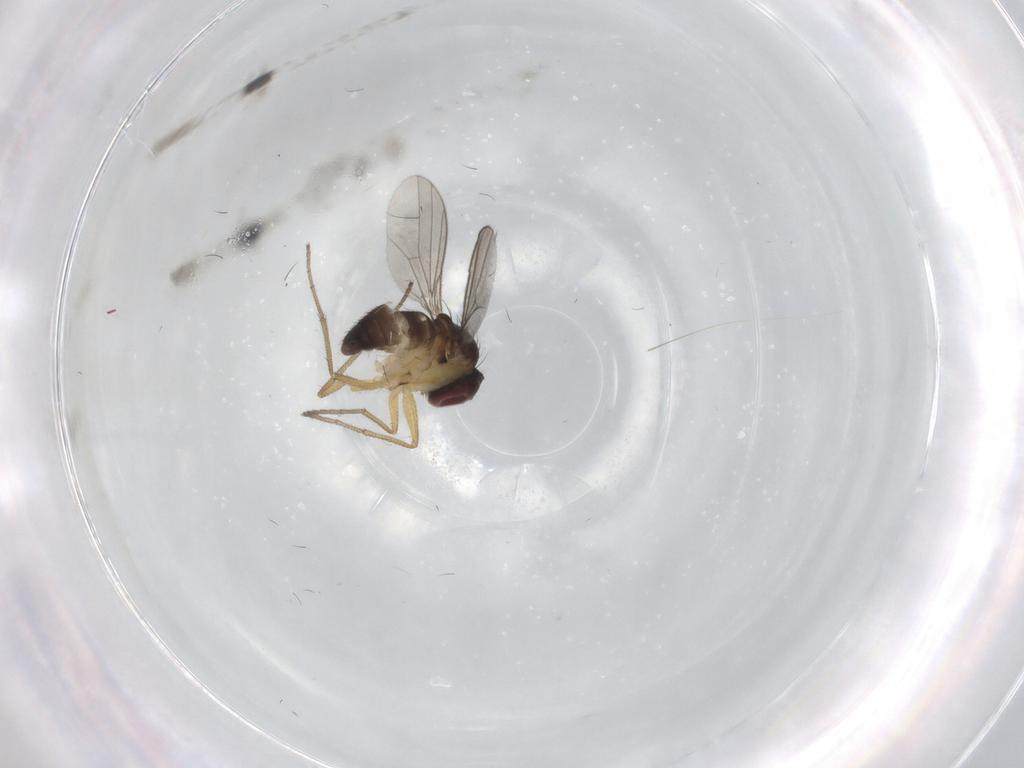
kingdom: Animalia
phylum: Arthropoda
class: Insecta
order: Diptera
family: Dolichopodidae
